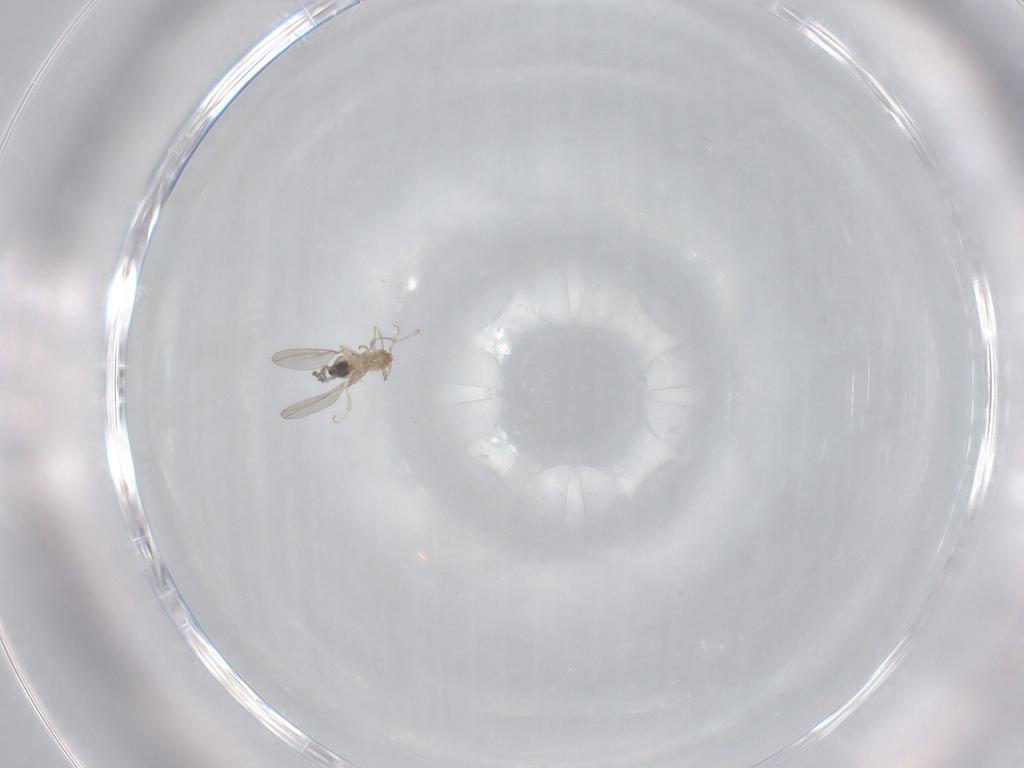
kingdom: Animalia
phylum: Arthropoda
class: Insecta
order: Diptera
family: Cecidomyiidae
